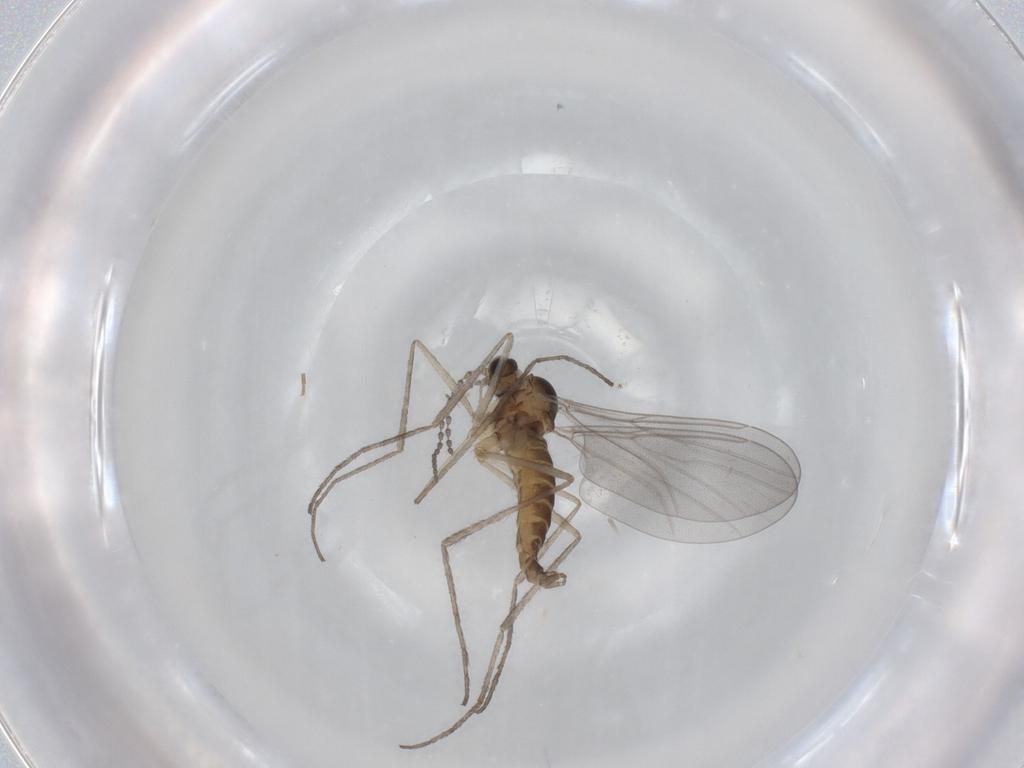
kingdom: Animalia
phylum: Arthropoda
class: Insecta
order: Diptera
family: Cecidomyiidae
